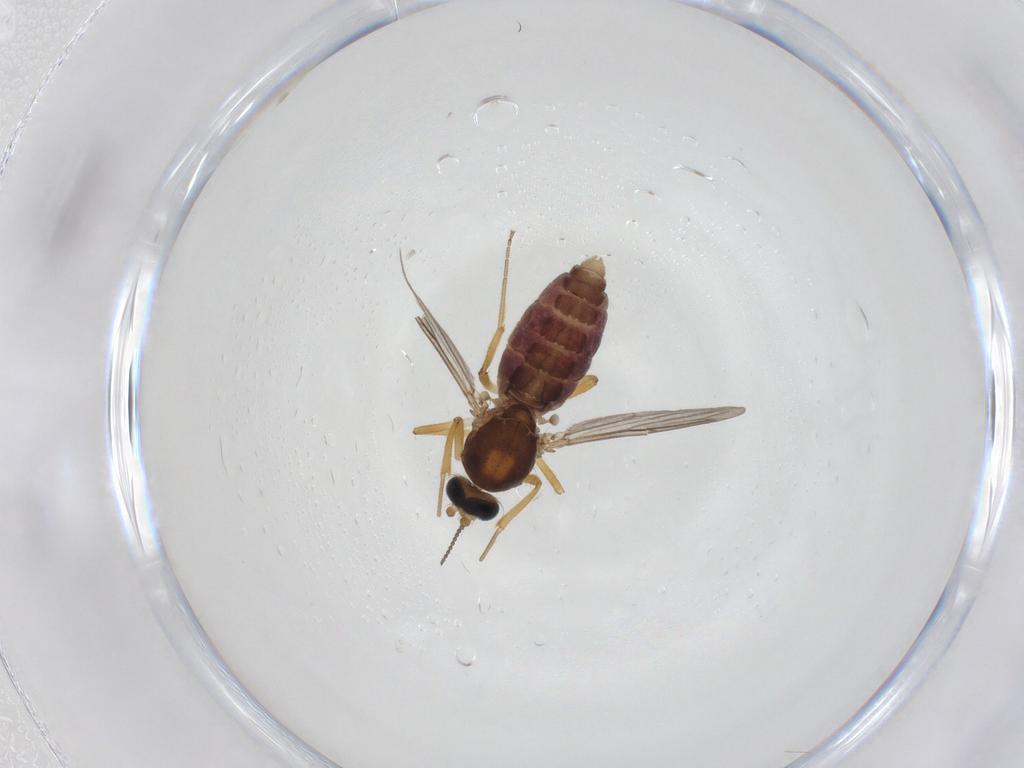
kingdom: Animalia
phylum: Arthropoda
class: Insecta
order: Diptera
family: Ceratopogonidae
